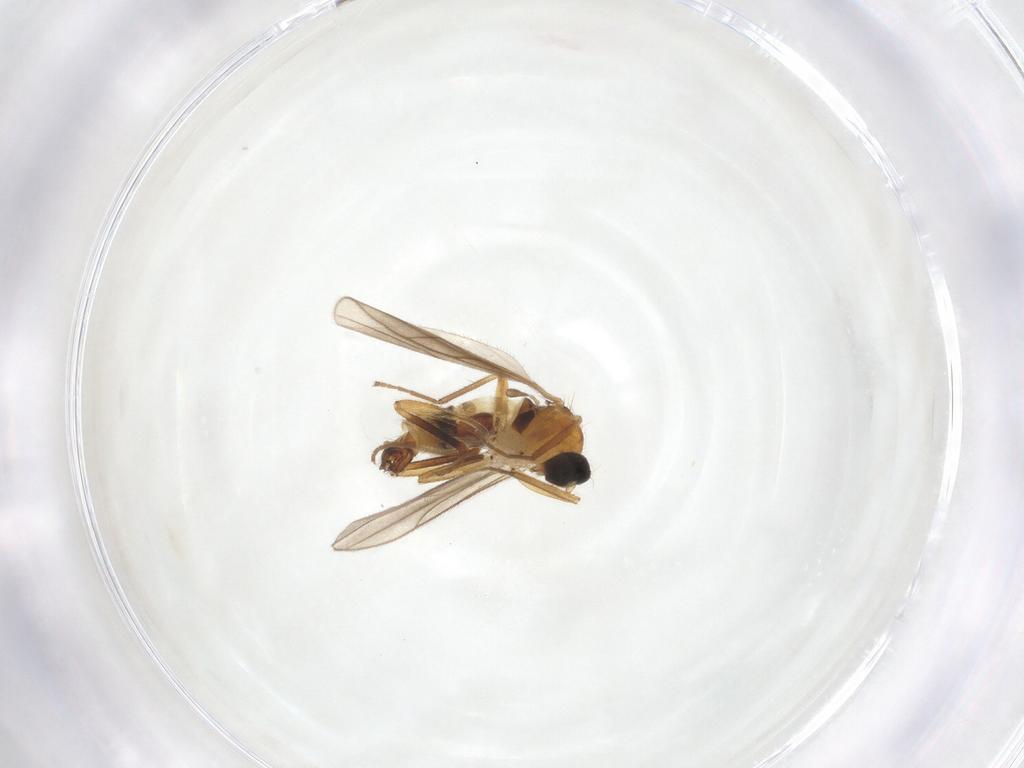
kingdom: Animalia
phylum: Arthropoda
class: Insecta
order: Diptera
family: Hybotidae
